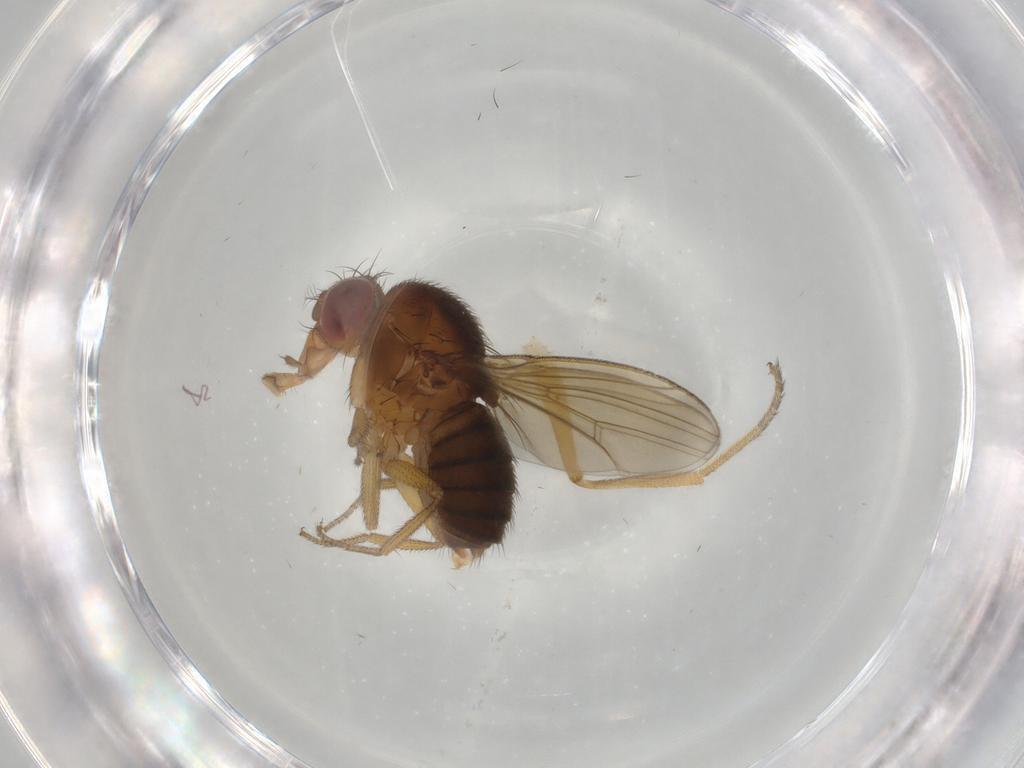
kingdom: Animalia
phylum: Arthropoda
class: Insecta
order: Diptera
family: Drosophilidae
